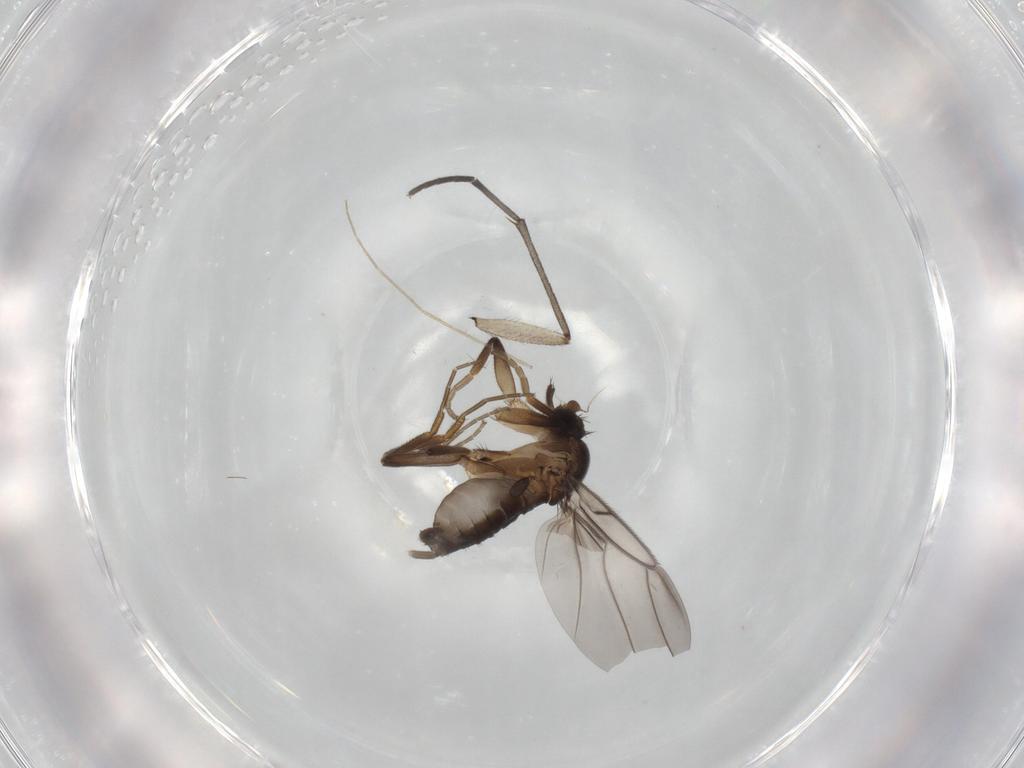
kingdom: Animalia
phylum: Arthropoda
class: Insecta
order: Diptera
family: Phoridae
